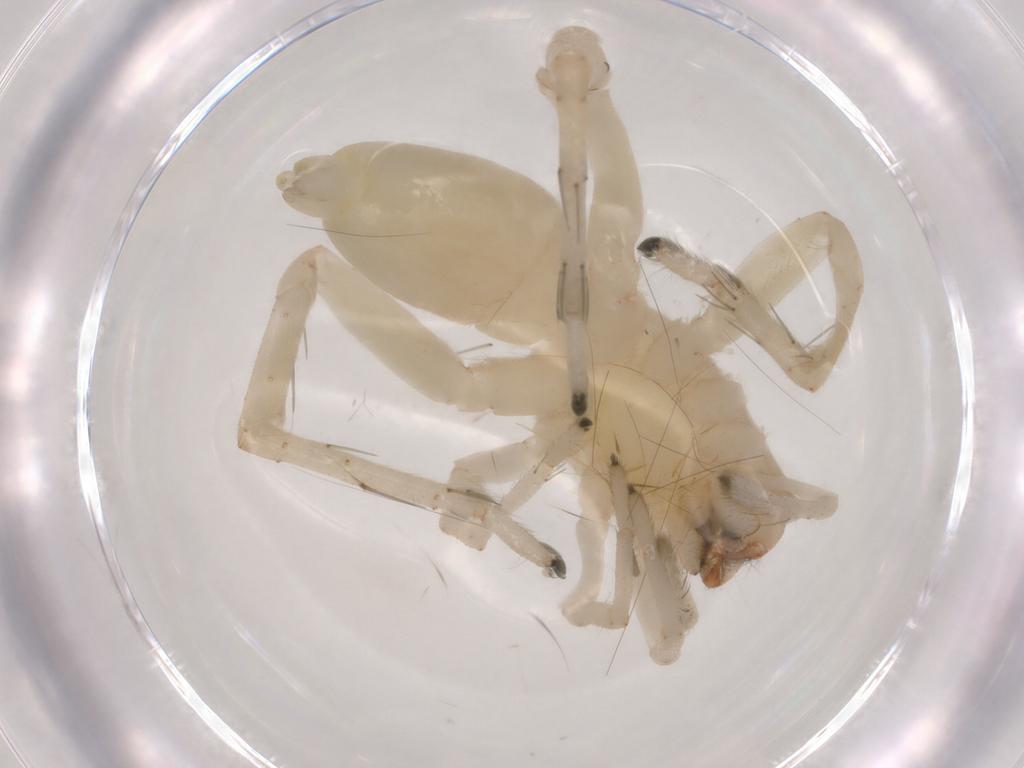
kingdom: Animalia
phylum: Arthropoda
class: Arachnida
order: Araneae
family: Clubionidae
